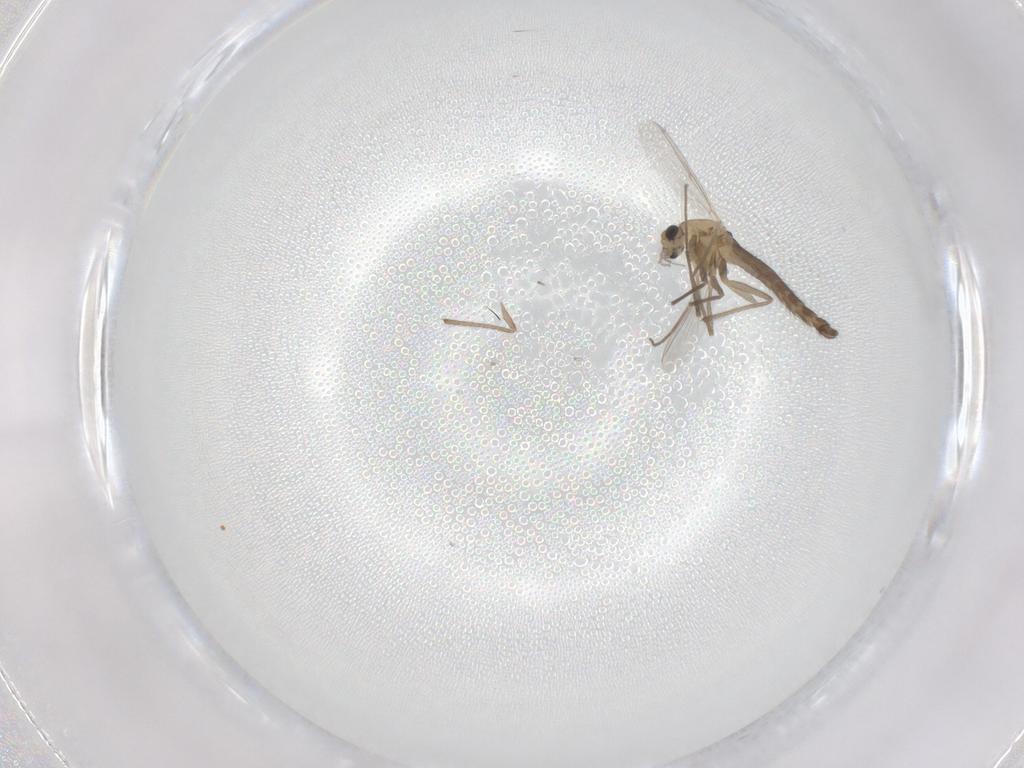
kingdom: Animalia
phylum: Arthropoda
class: Insecta
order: Diptera
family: Chironomidae
